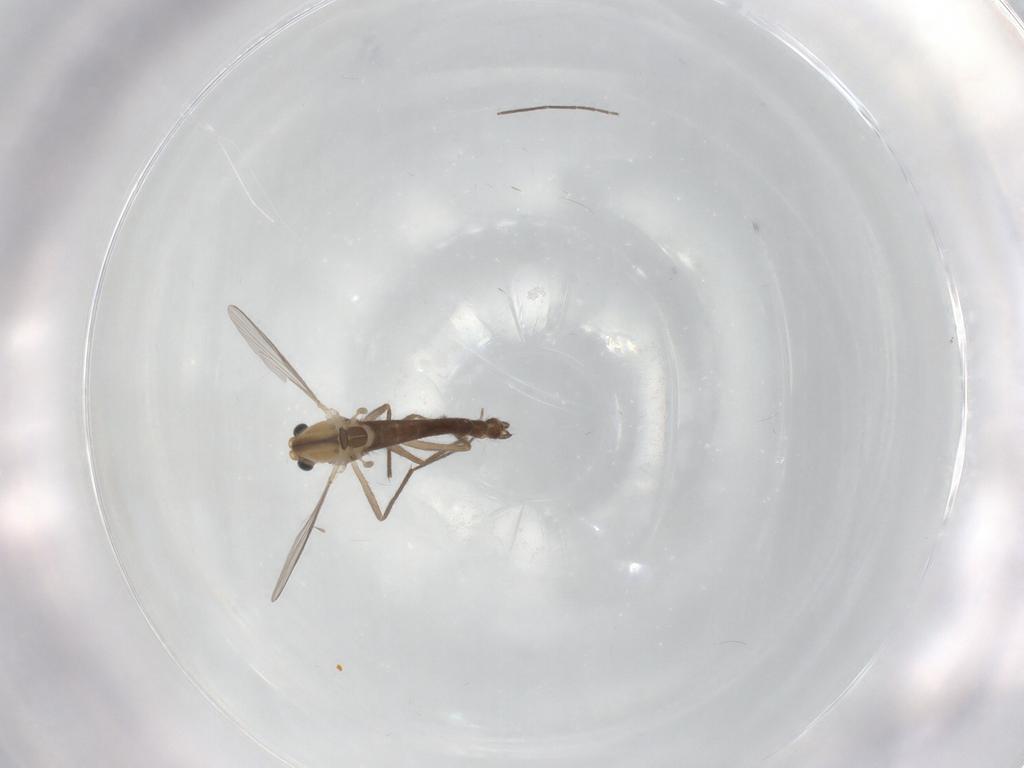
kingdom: Animalia
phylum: Arthropoda
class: Insecta
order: Diptera
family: Chironomidae
